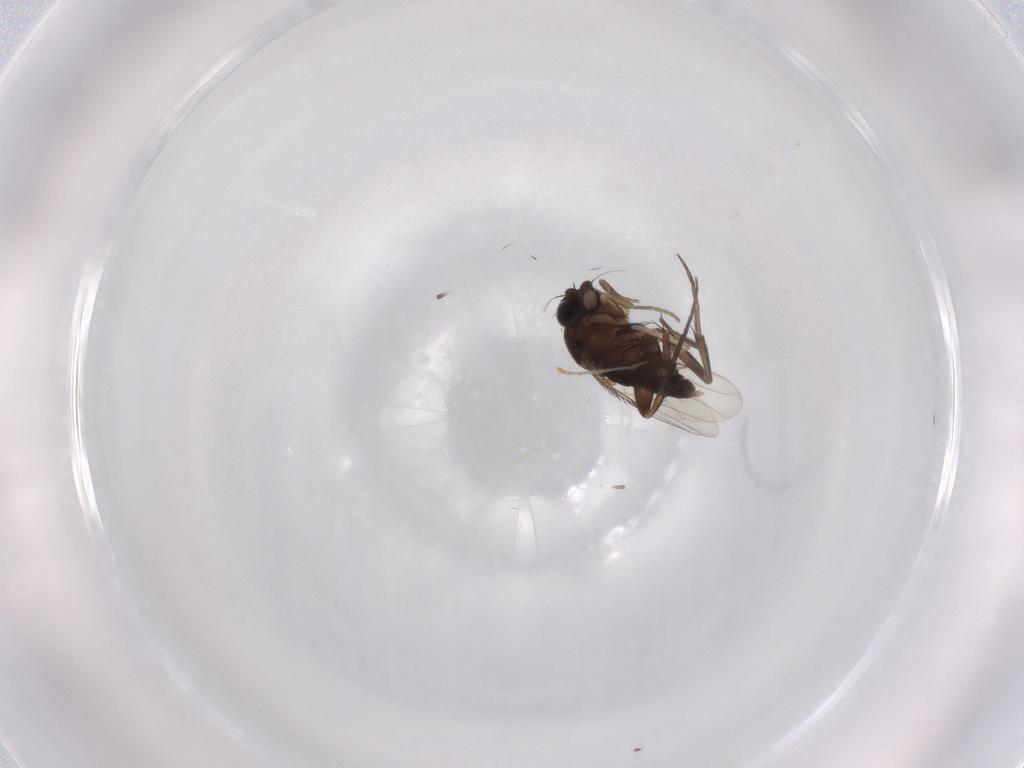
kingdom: Animalia
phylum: Arthropoda
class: Insecta
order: Diptera
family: Phoridae
